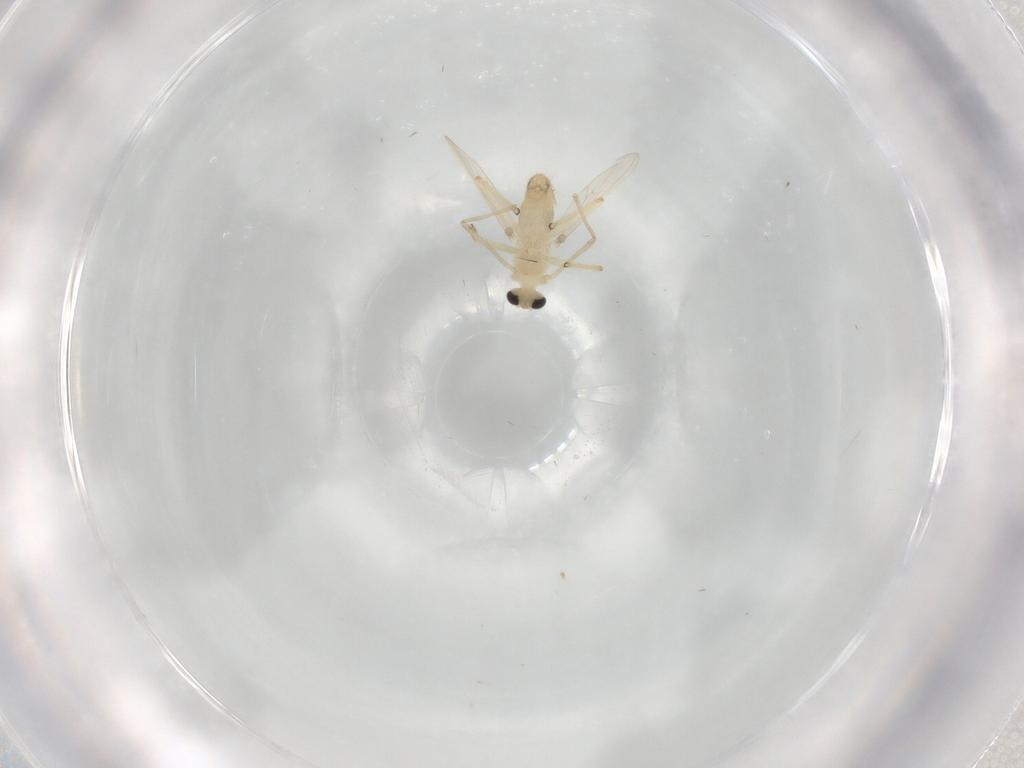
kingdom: Animalia
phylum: Arthropoda
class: Insecta
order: Diptera
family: Chironomidae
